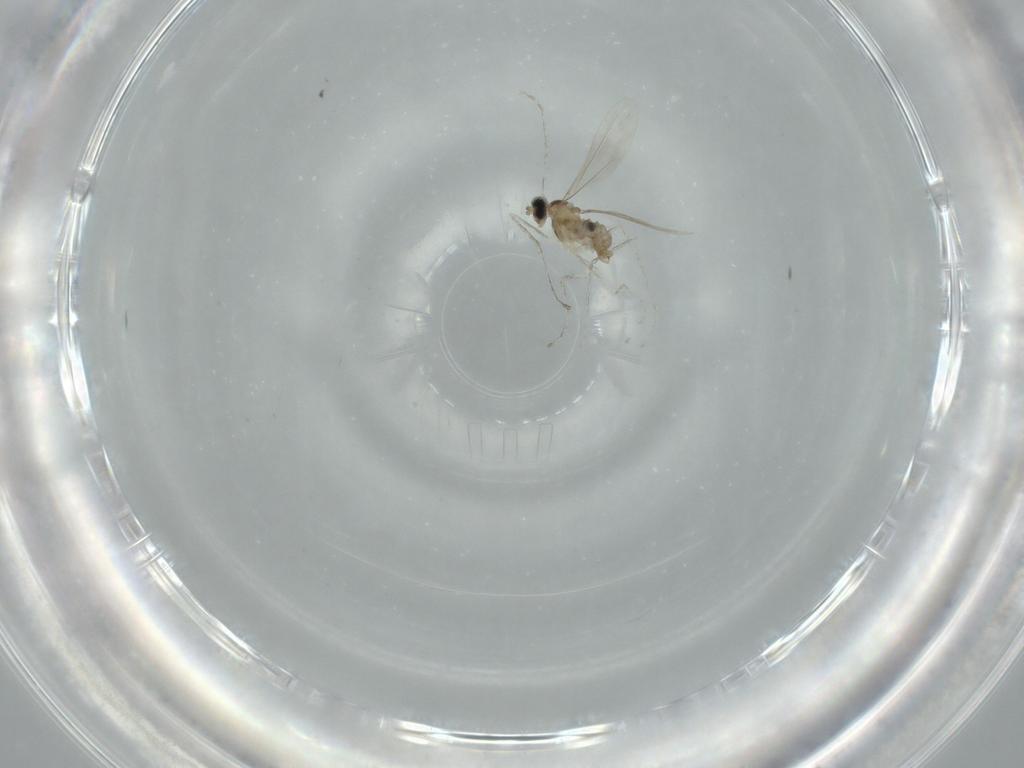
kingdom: Animalia
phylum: Arthropoda
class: Insecta
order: Diptera
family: Cecidomyiidae
